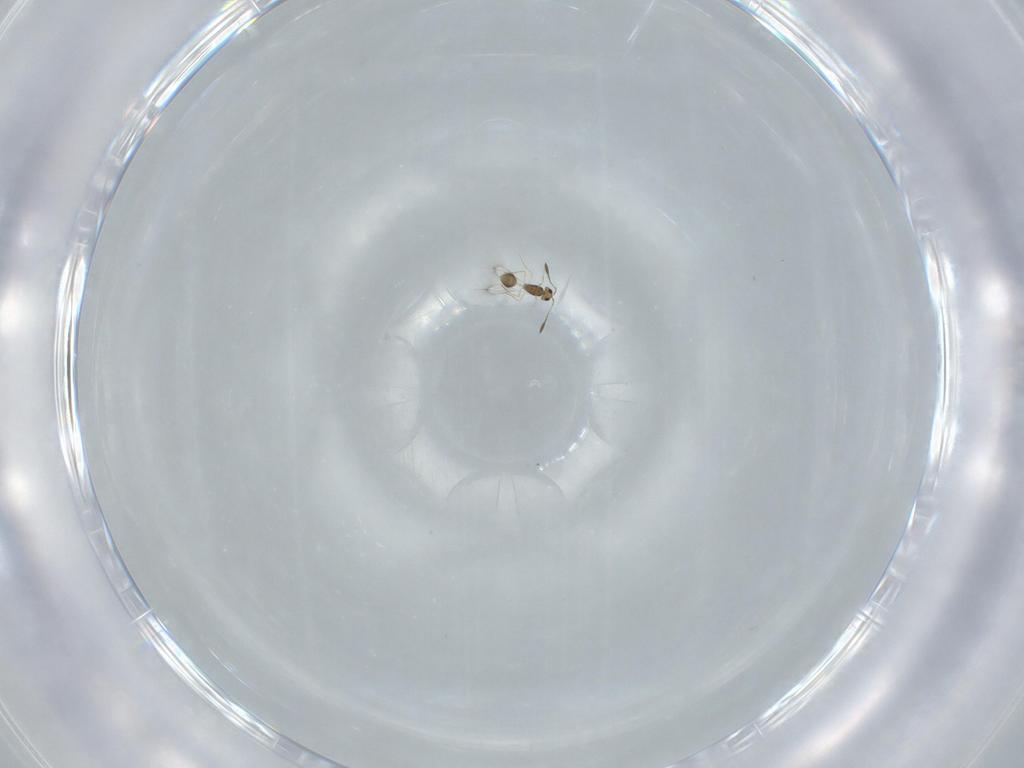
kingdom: Animalia
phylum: Arthropoda
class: Insecta
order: Hymenoptera
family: Mymarommatidae
